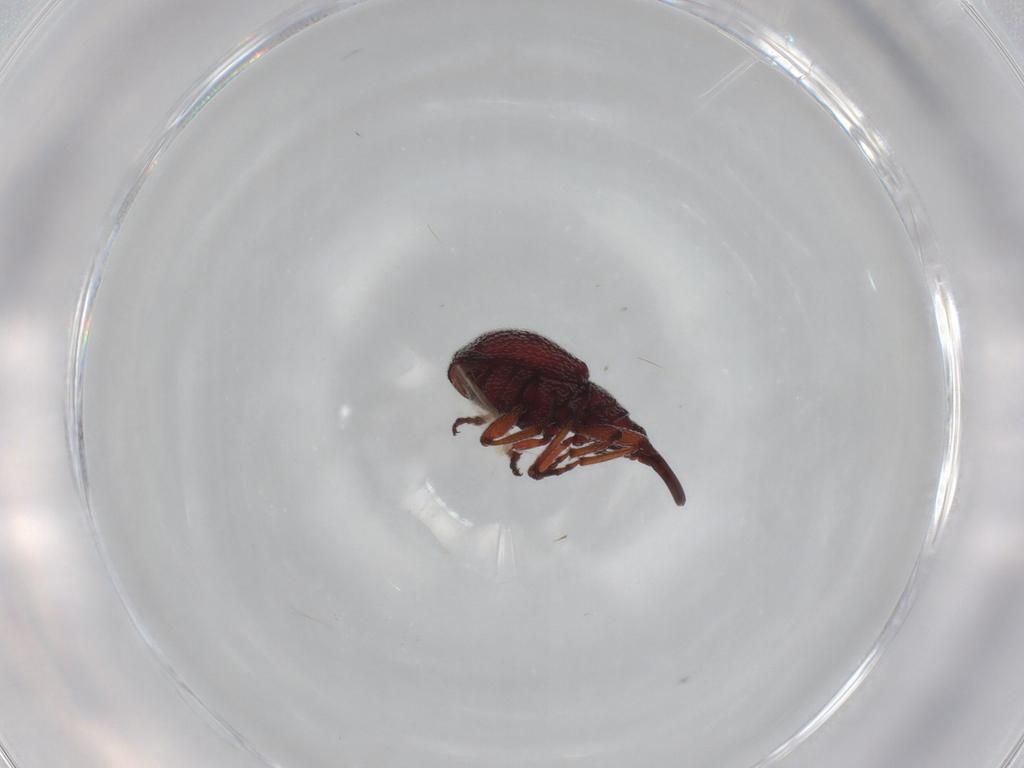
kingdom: Animalia
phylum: Arthropoda
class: Insecta
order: Coleoptera
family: Brentidae
